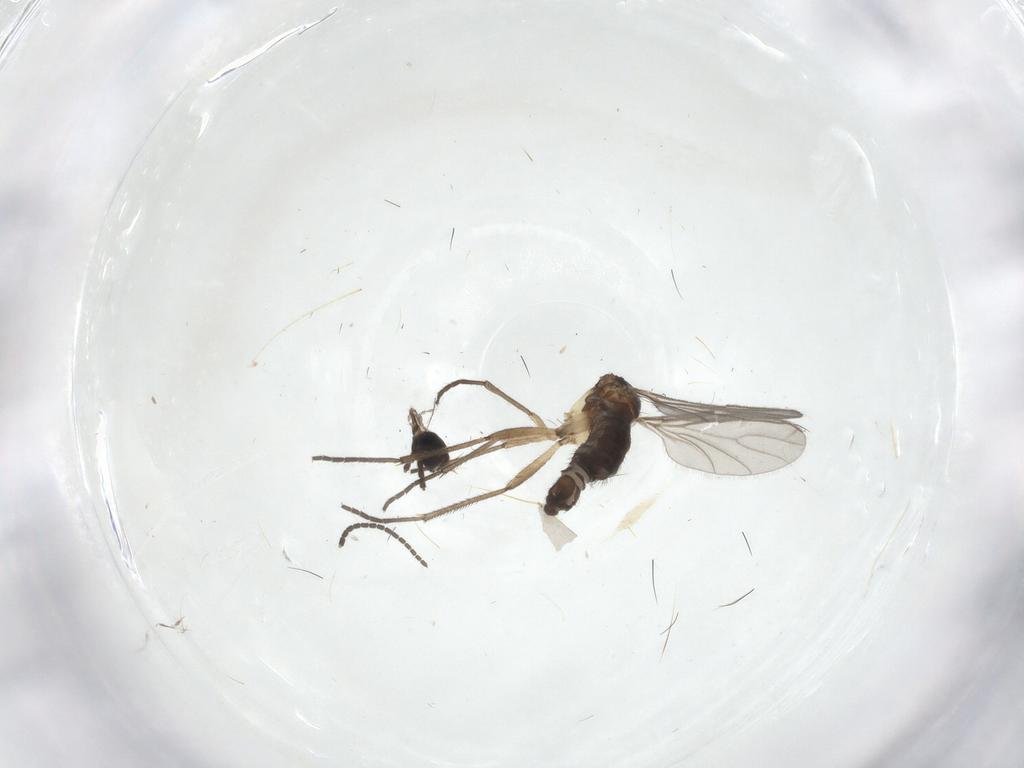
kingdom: Animalia
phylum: Arthropoda
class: Insecta
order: Diptera
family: Sciaridae
